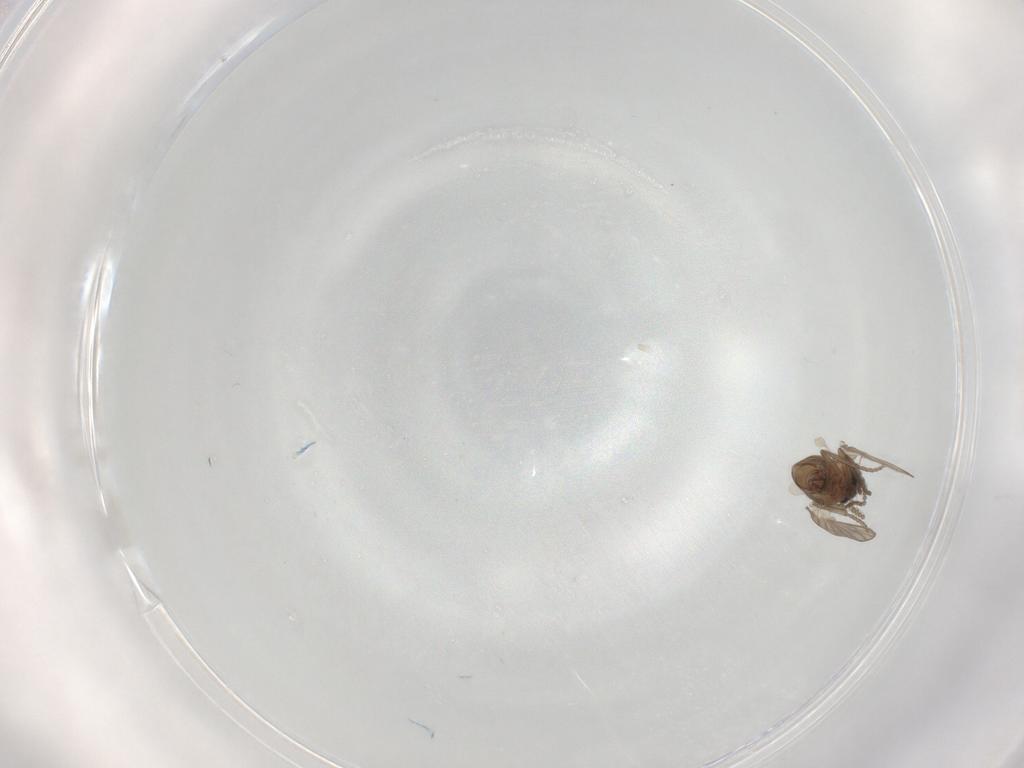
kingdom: Animalia
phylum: Arthropoda
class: Insecta
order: Diptera
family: Psychodidae
